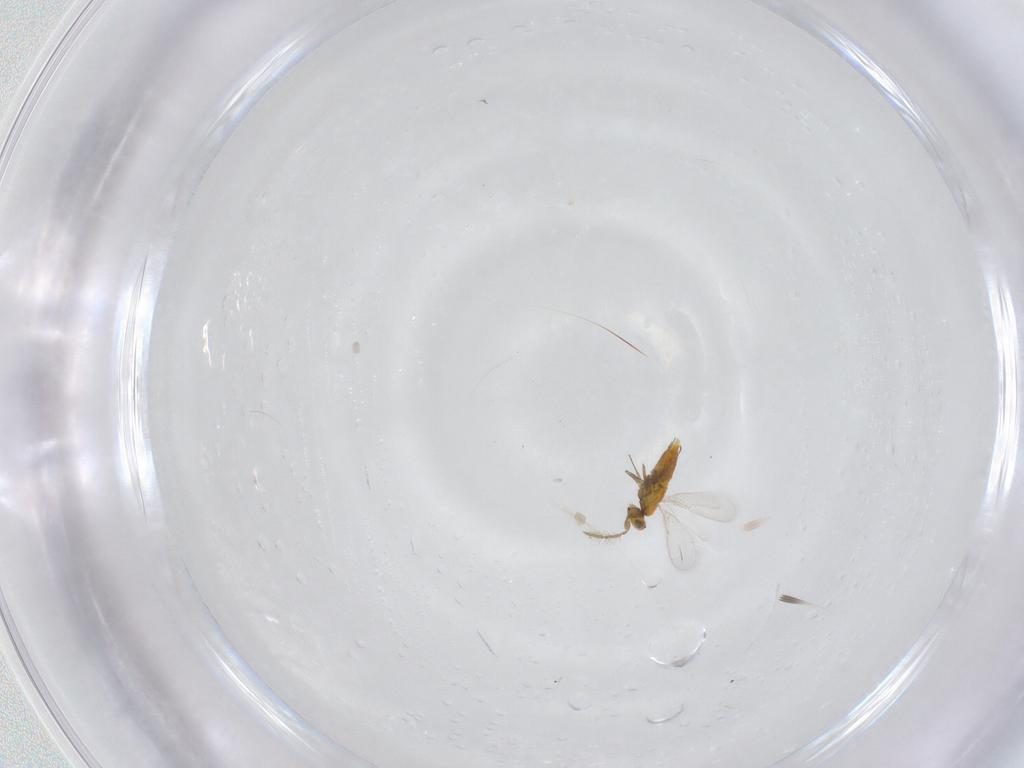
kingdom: Animalia
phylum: Arthropoda
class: Insecta
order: Hymenoptera
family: Aphelinidae
